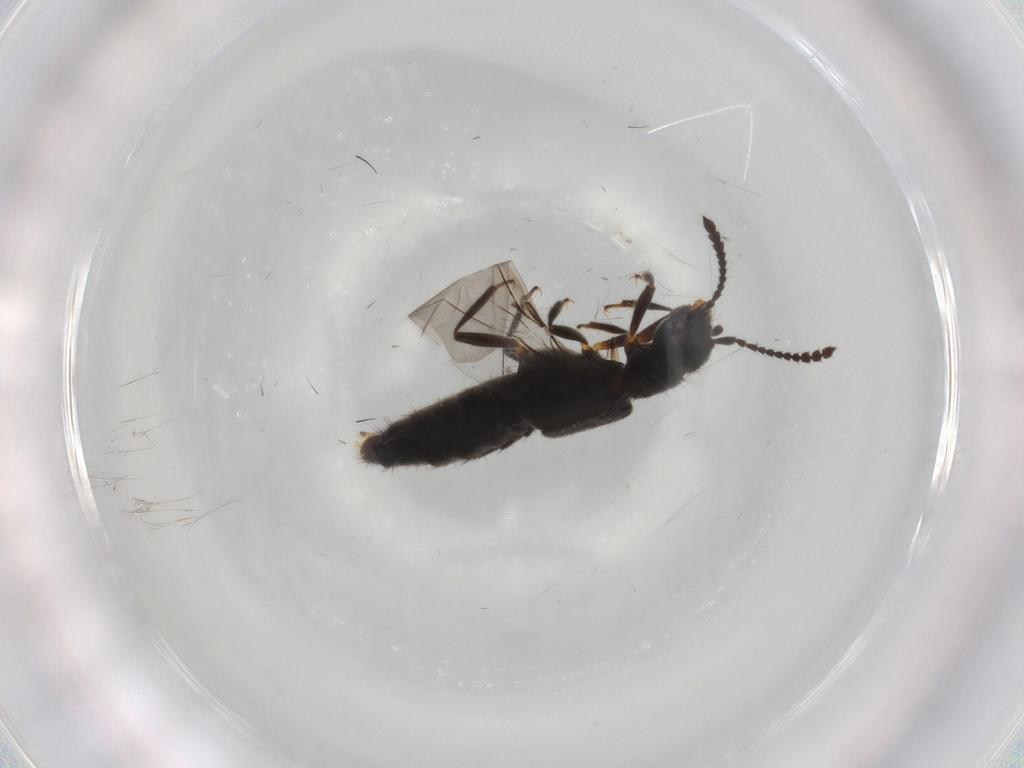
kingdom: Animalia
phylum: Arthropoda
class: Insecta
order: Coleoptera
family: Staphylinidae
